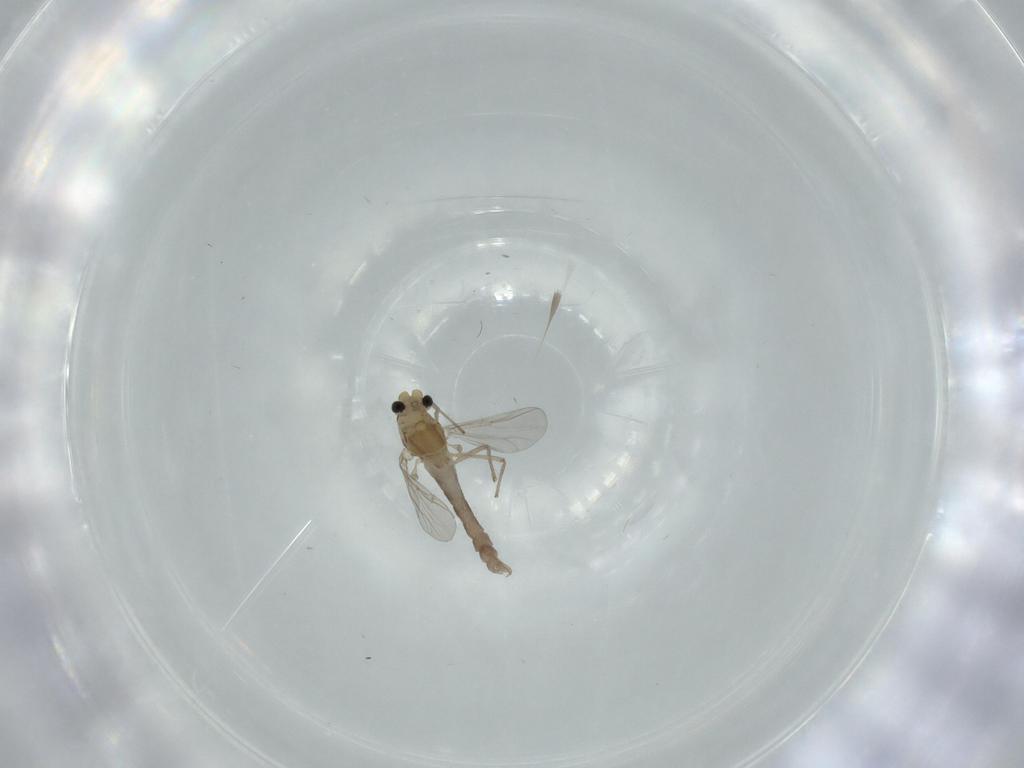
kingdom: Animalia
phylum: Arthropoda
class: Insecta
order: Diptera
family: Chironomidae
